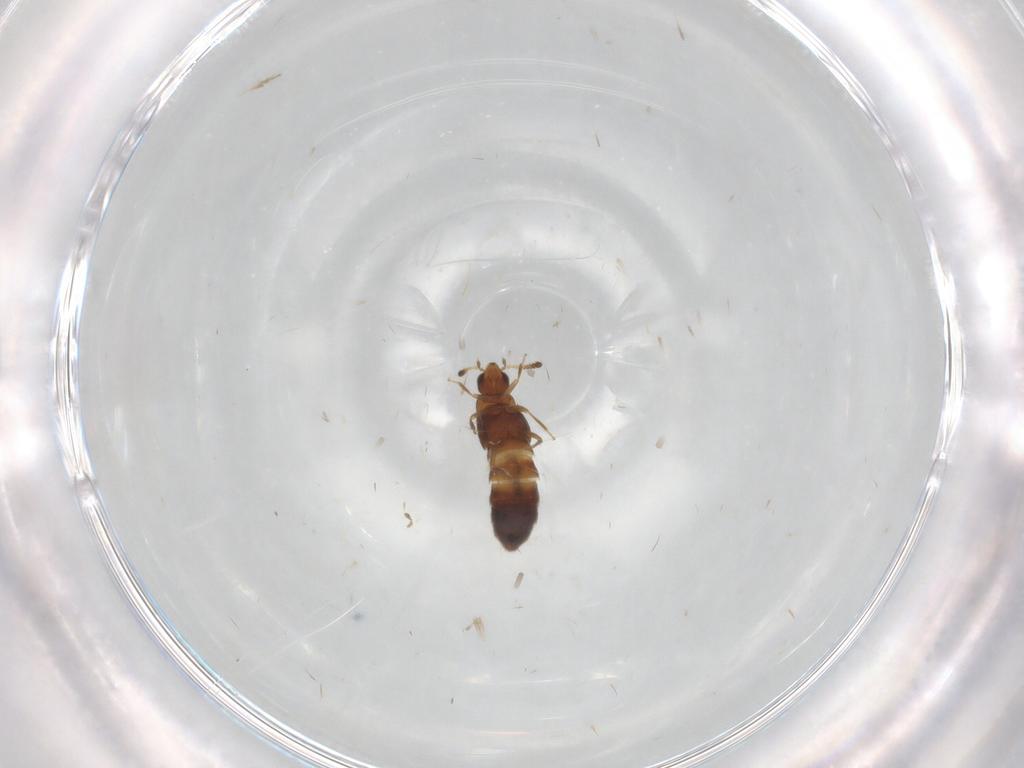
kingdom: Animalia
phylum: Arthropoda
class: Insecta
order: Coleoptera
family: Staphylinidae
